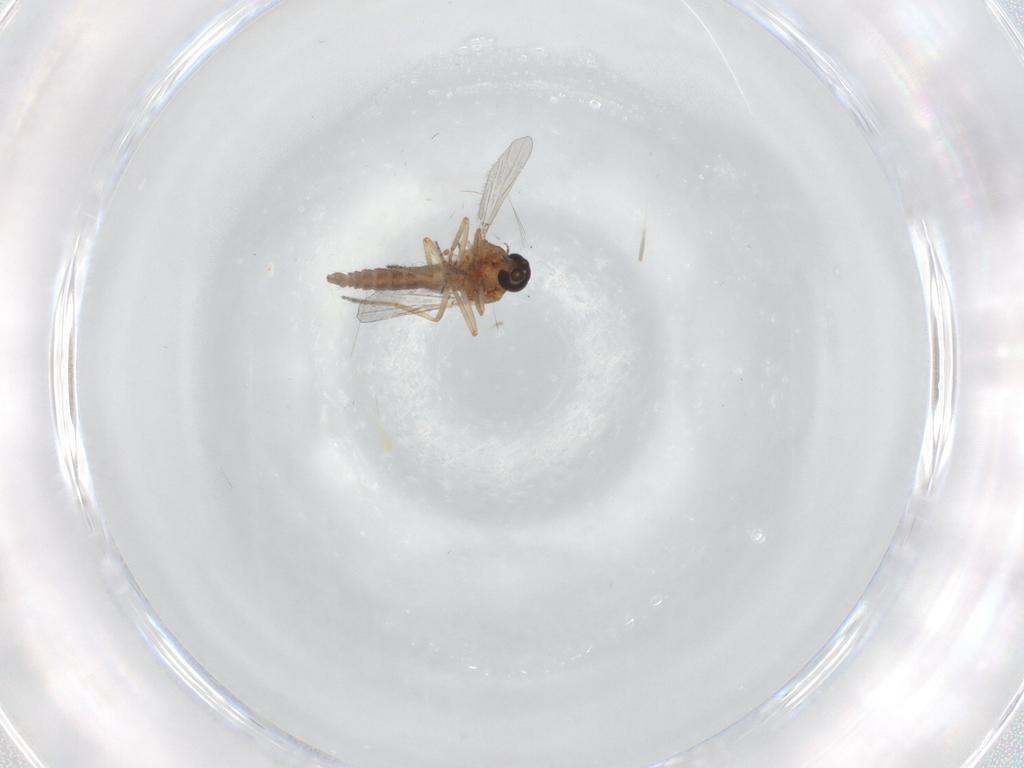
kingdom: Animalia
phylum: Arthropoda
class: Insecta
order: Diptera
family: Ceratopogonidae
